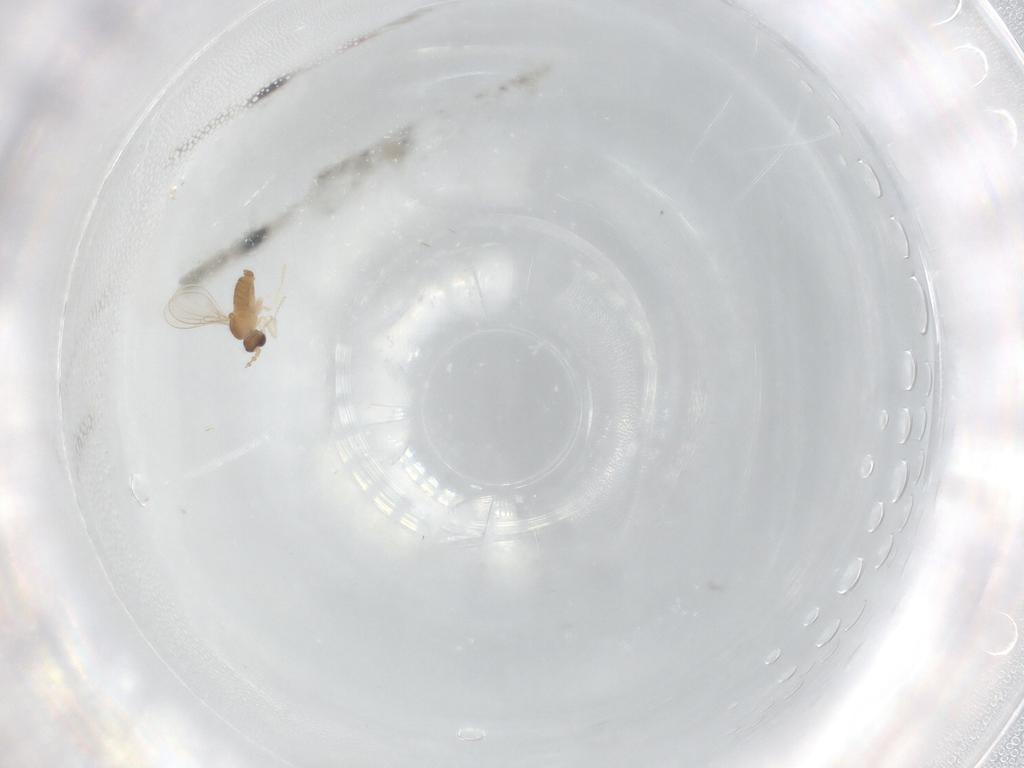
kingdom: Animalia
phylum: Arthropoda
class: Insecta
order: Diptera
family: Cecidomyiidae
